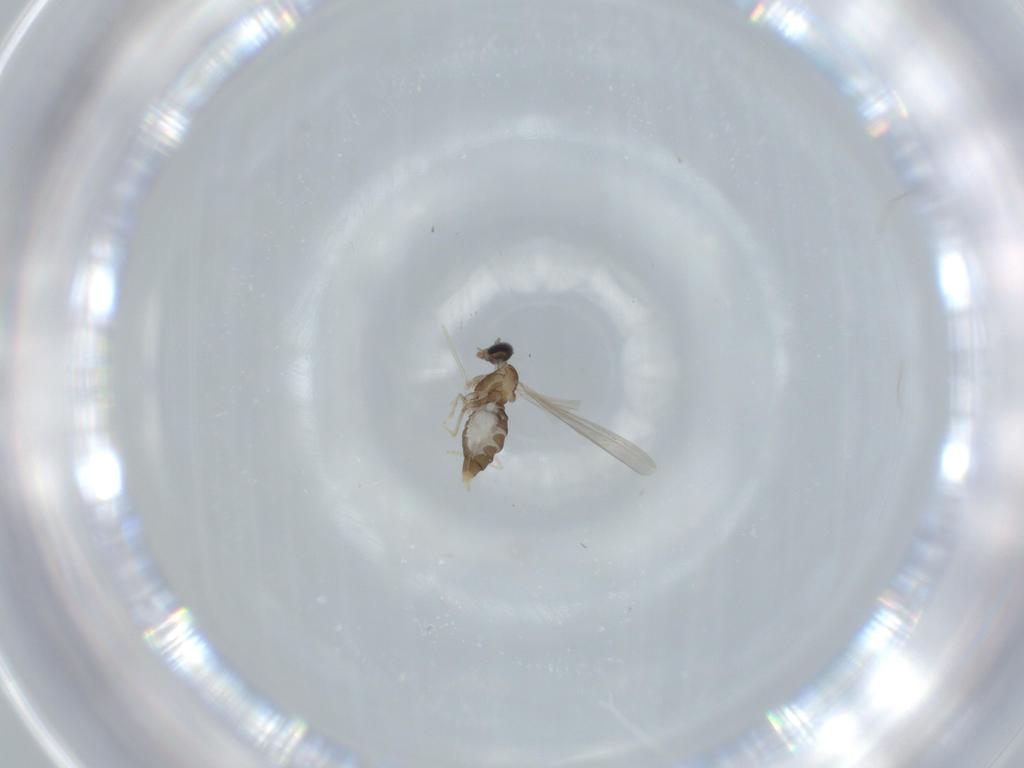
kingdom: Animalia
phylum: Arthropoda
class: Insecta
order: Diptera
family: Cecidomyiidae
